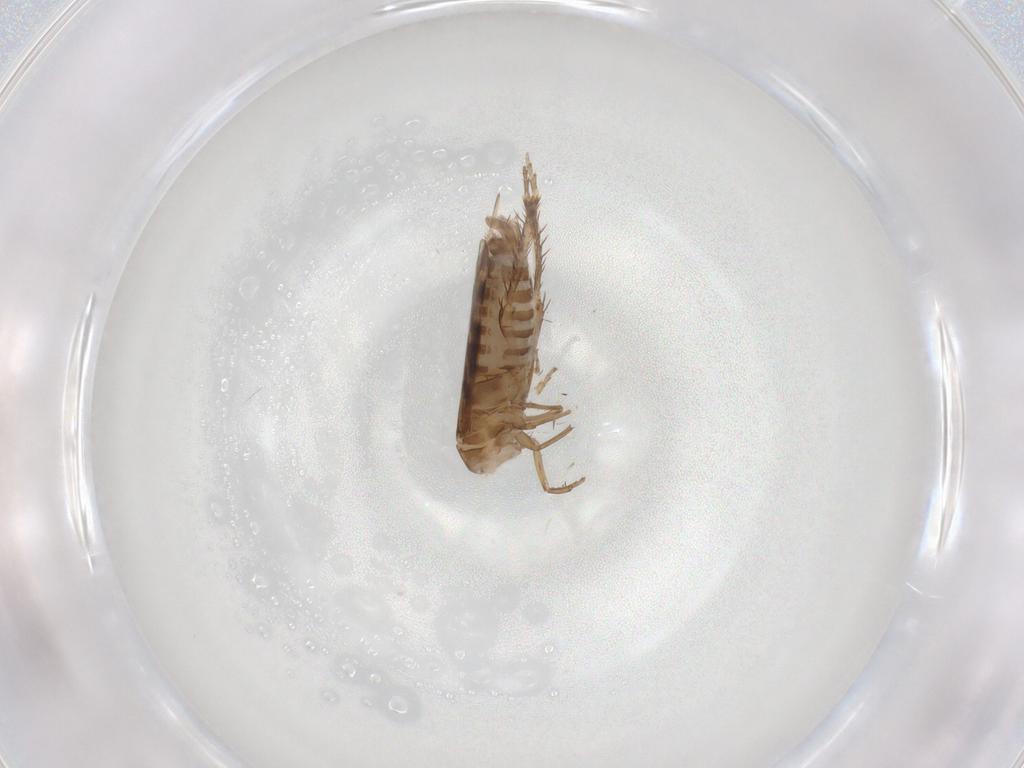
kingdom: Animalia
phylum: Arthropoda
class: Insecta
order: Hemiptera
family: Cicadellidae
